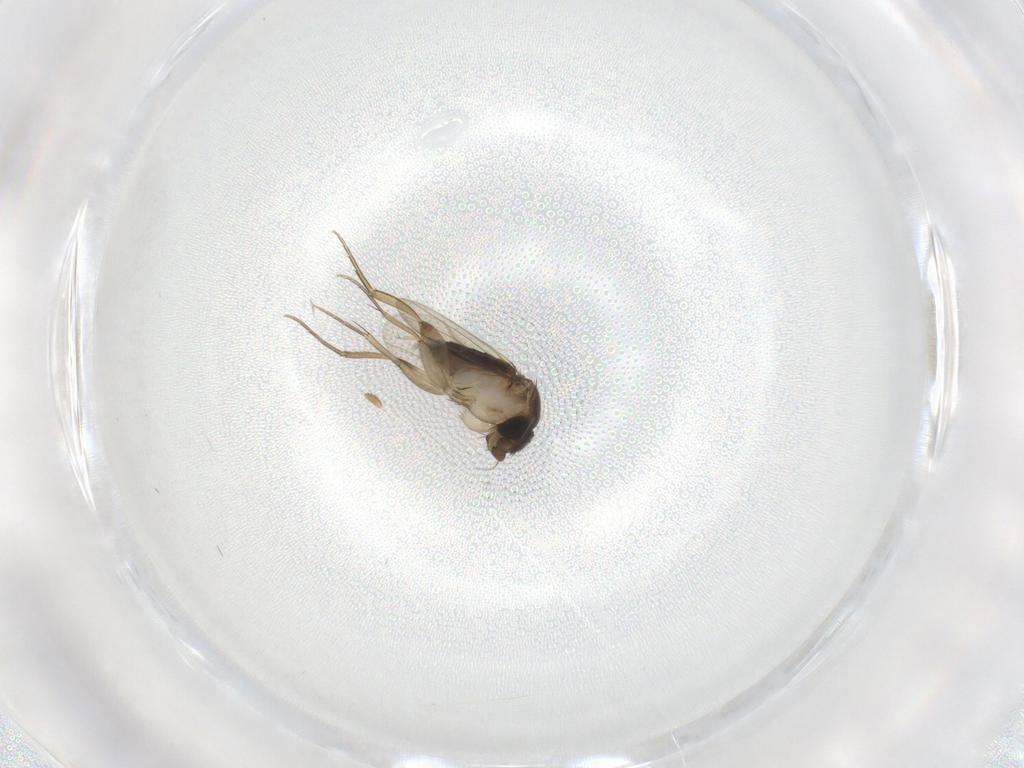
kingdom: Animalia
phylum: Arthropoda
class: Insecta
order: Diptera
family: Phoridae
